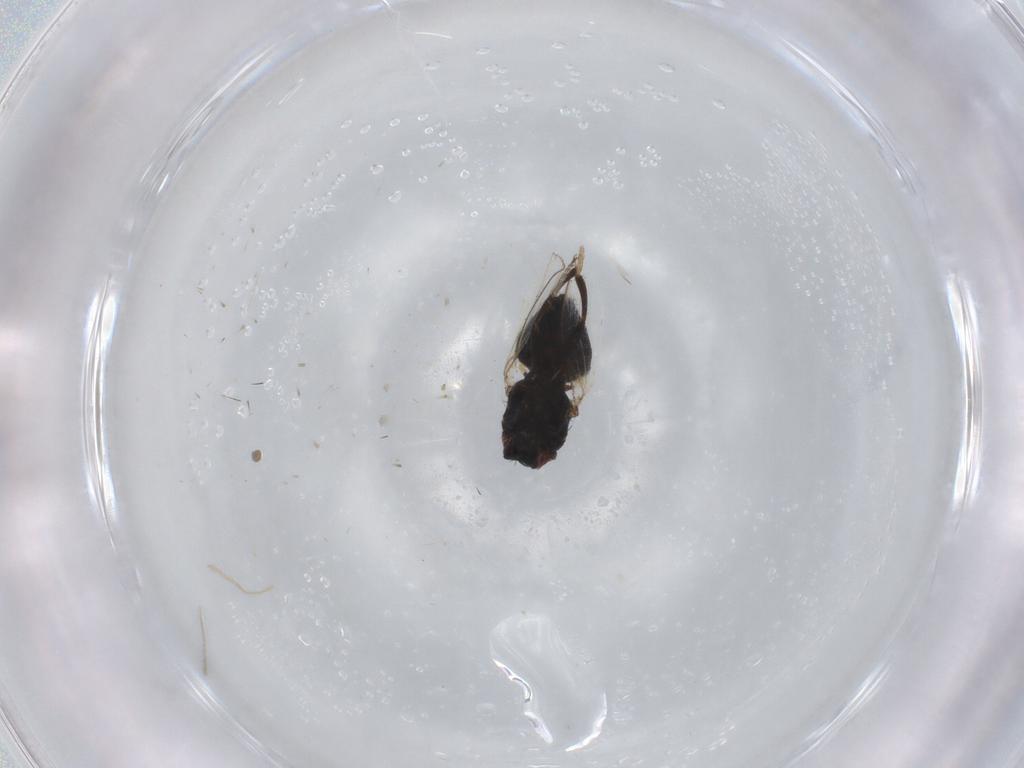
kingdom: Animalia
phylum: Arthropoda
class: Insecta
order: Diptera
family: Milichiidae
